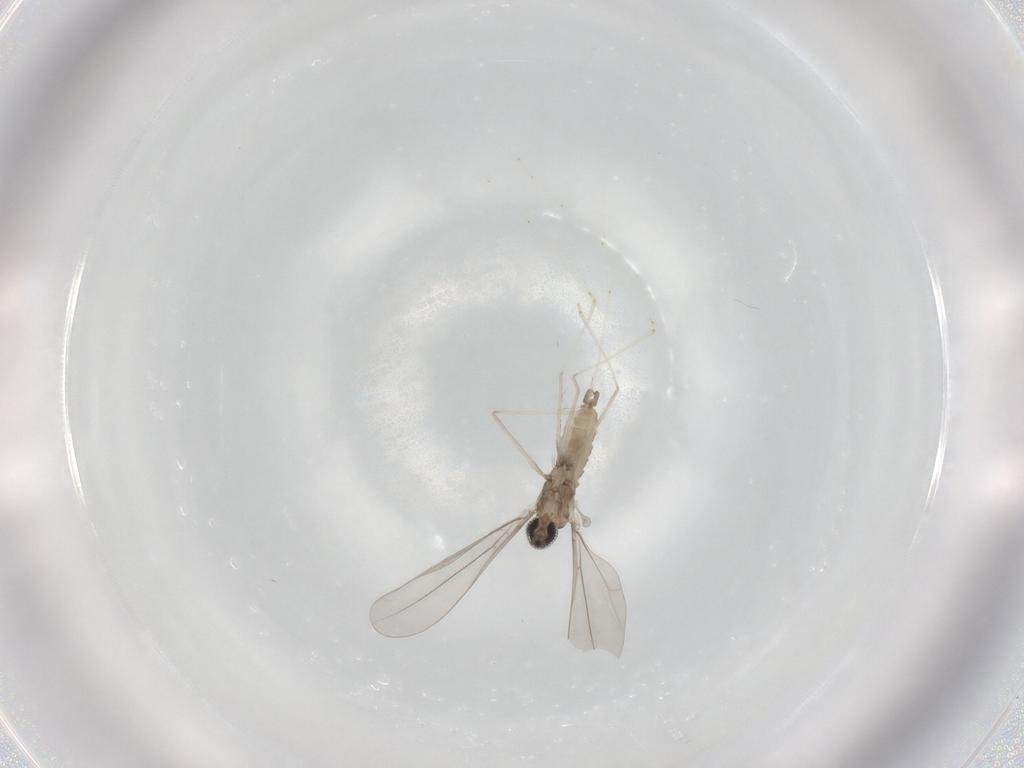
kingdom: Animalia
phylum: Arthropoda
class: Insecta
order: Diptera
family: Cecidomyiidae
